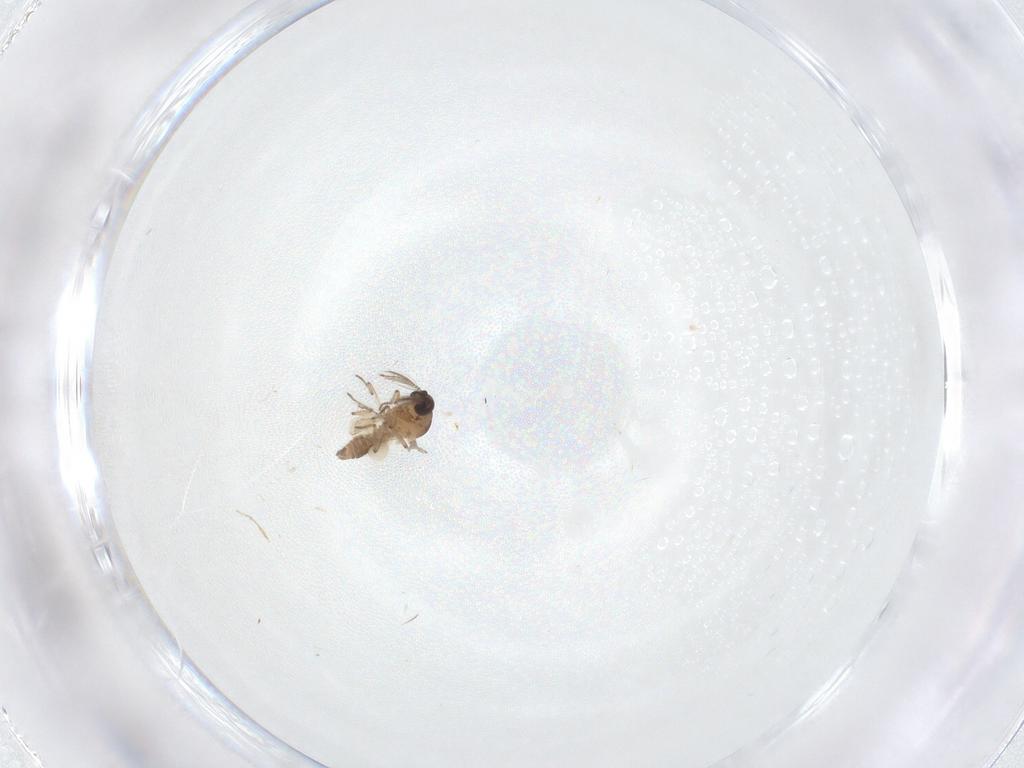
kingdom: Animalia
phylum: Arthropoda
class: Insecta
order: Diptera
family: Ceratopogonidae
